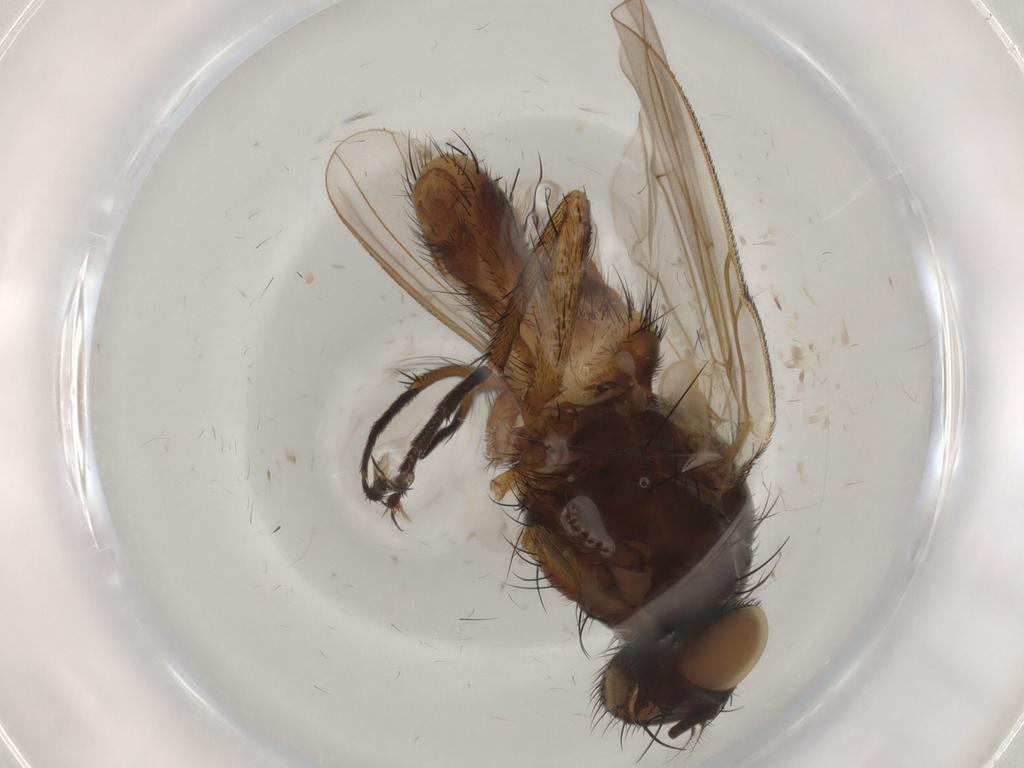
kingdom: Animalia
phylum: Arthropoda
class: Insecta
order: Diptera
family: Muscidae
